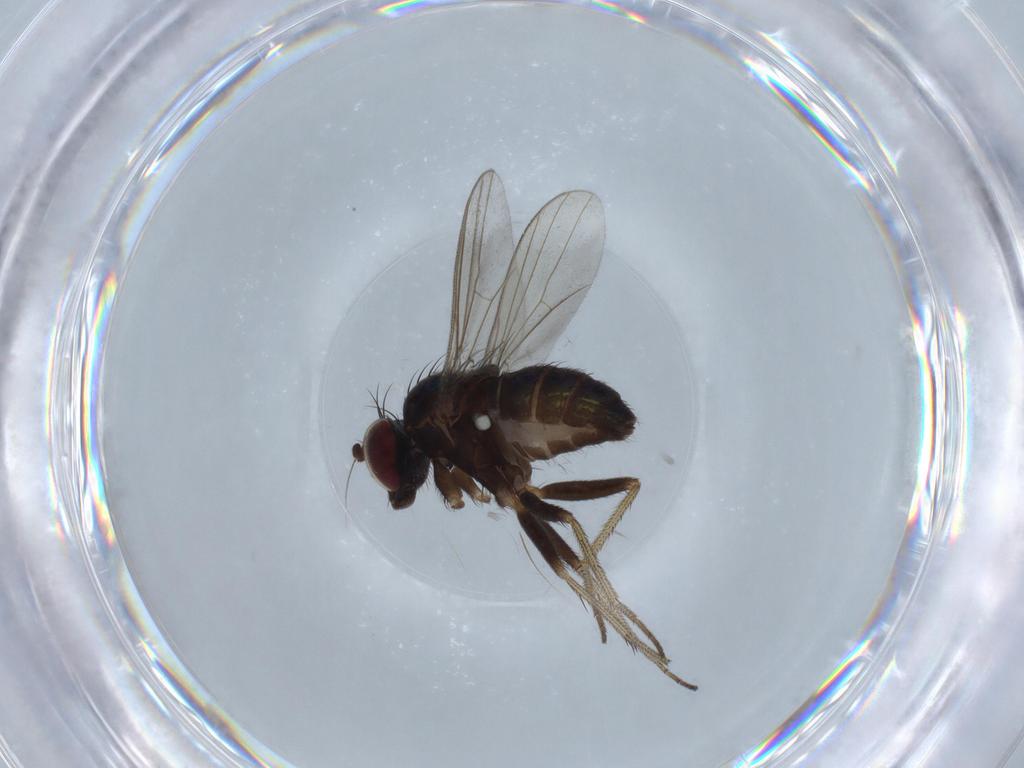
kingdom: Animalia
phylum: Arthropoda
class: Insecta
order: Diptera
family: Dolichopodidae
